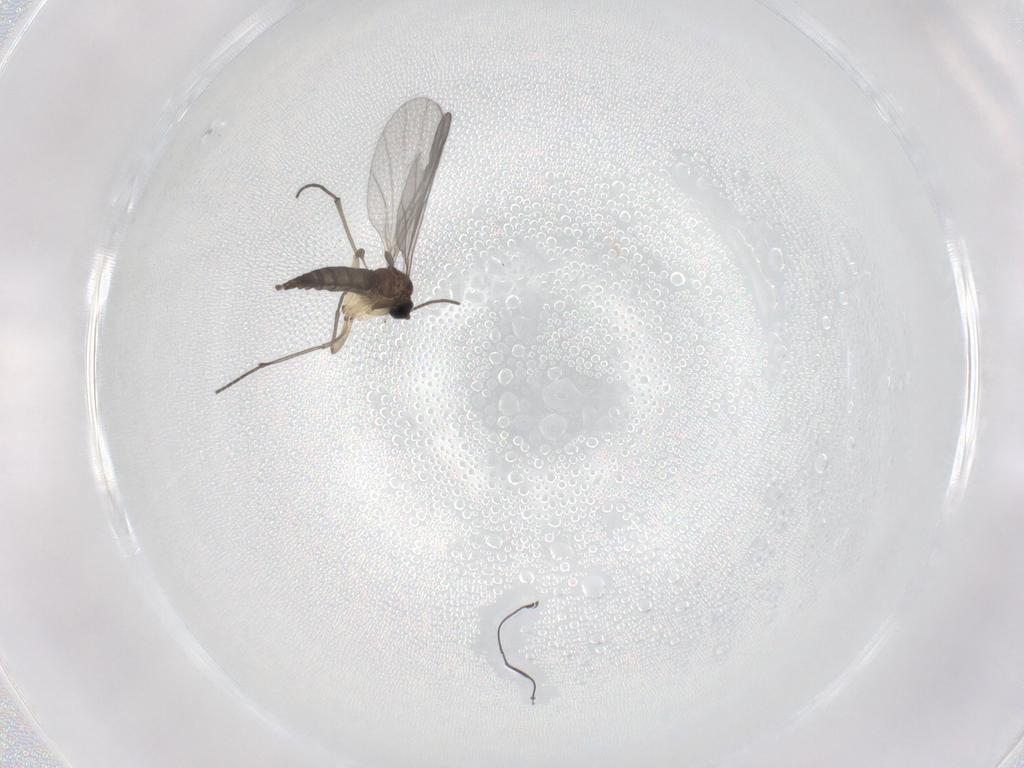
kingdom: Animalia
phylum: Arthropoda
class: Insecta
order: Diptera
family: Sciaridae
